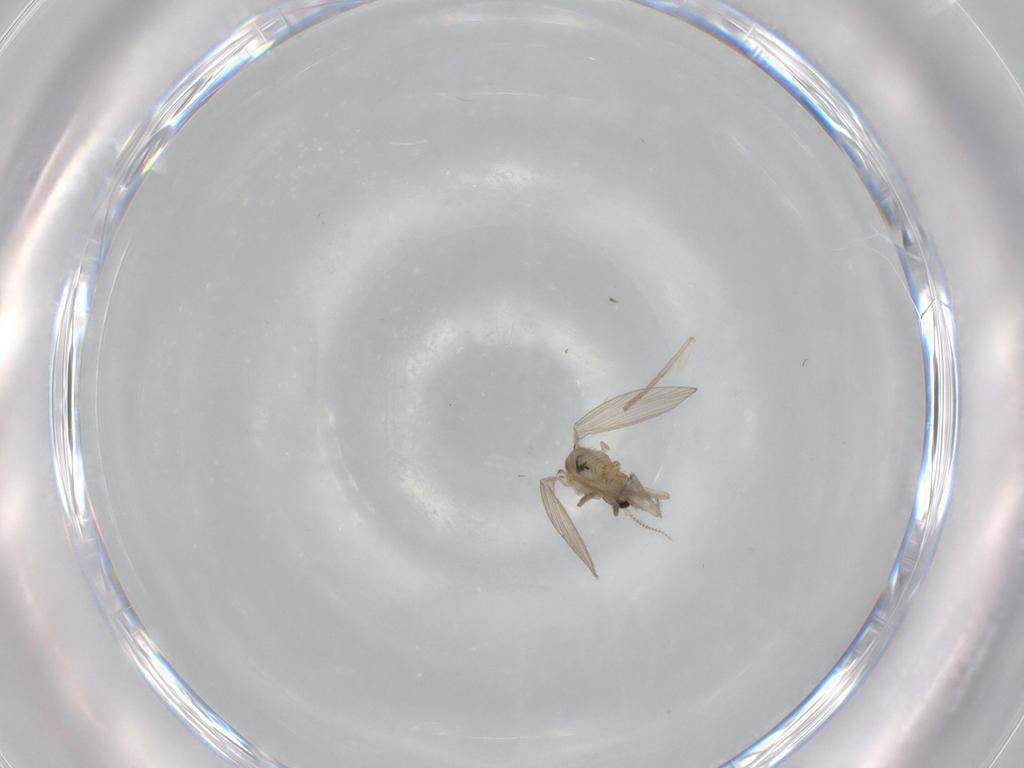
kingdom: Animalia
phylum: Arthropoda
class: Insecta
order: Diptera
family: Psychodidae
